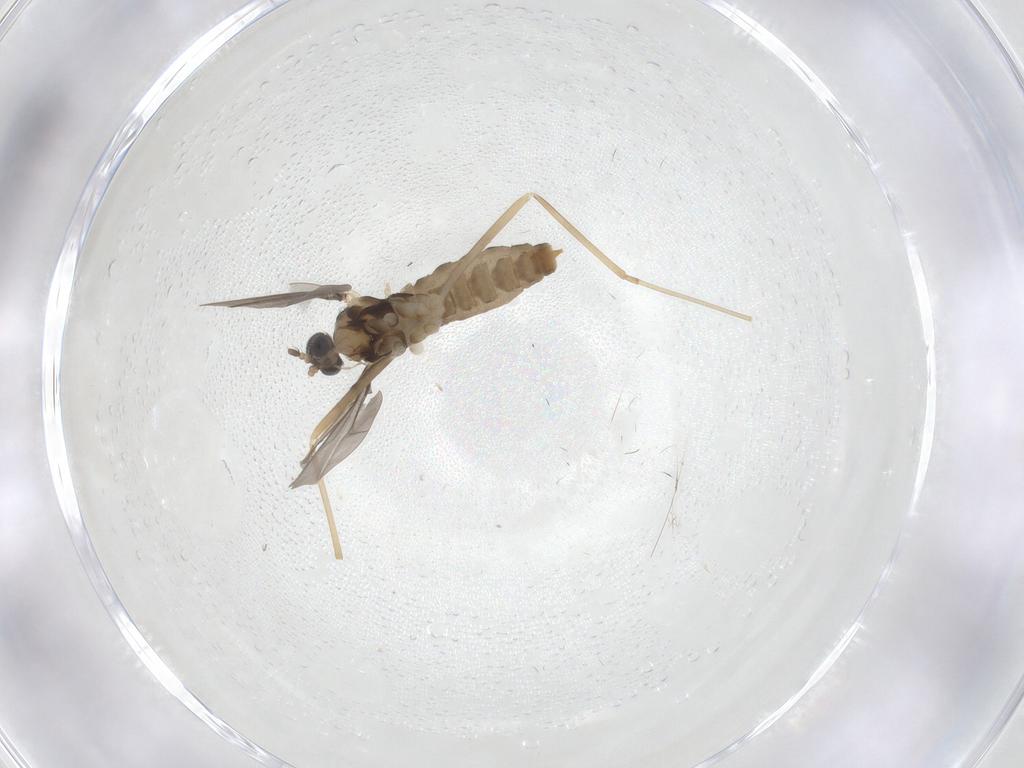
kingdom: Animalia
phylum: Arthropoda
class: Insecta
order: Diptera
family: Cecidomyiidae
